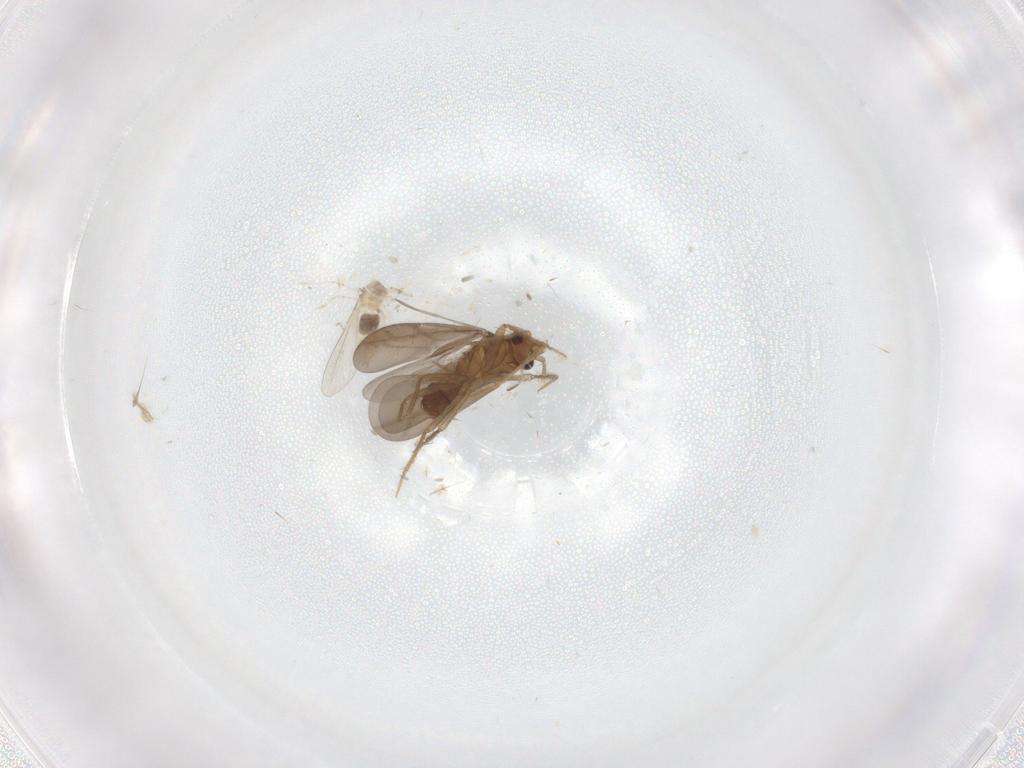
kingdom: Animalia
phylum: Arthropoda
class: Insecta
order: Hemiptera
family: Ceratocombidae
